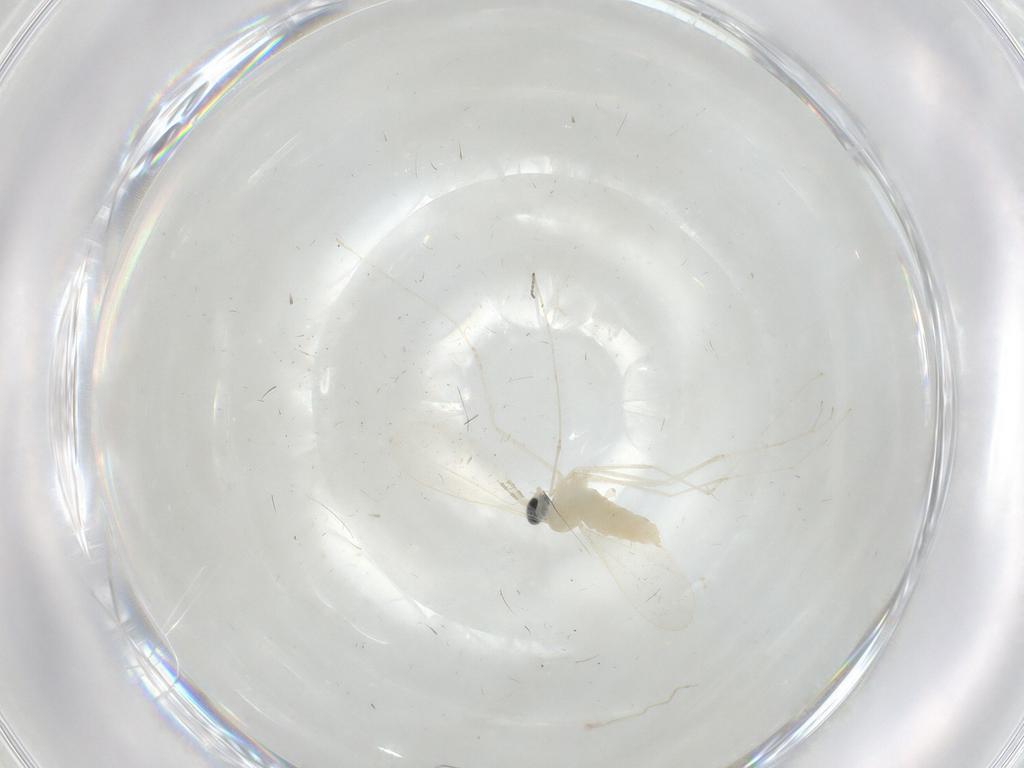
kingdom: Animalia
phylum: Arthropoda
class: Insecta
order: Diptera
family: Cecidomyiidae
